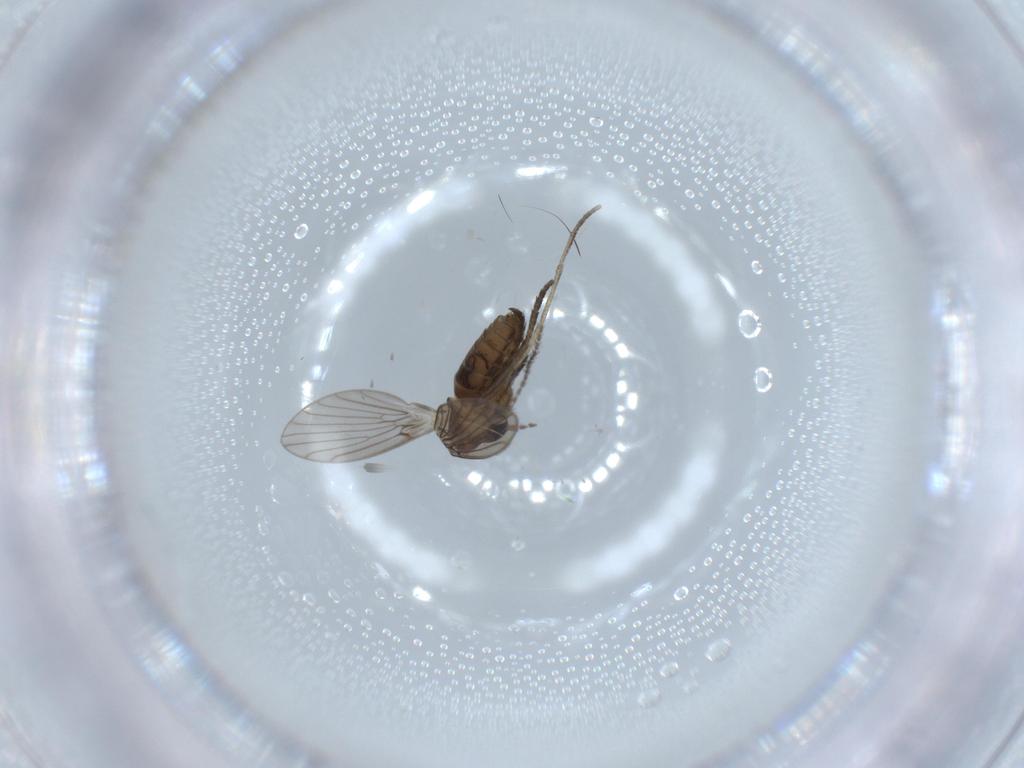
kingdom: Animalia
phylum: Arthropoda
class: Insecta
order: Diptera
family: Psychodidae
